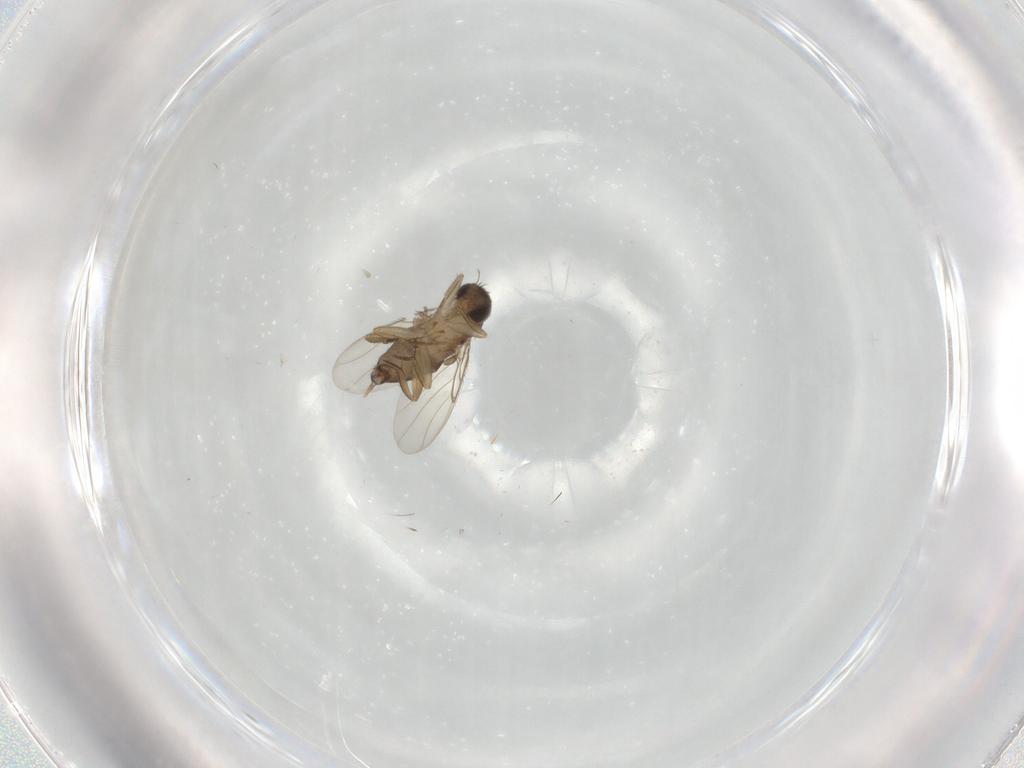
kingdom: Animalia
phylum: Arthropoda
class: Insecta
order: Diptera
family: Phoridae
